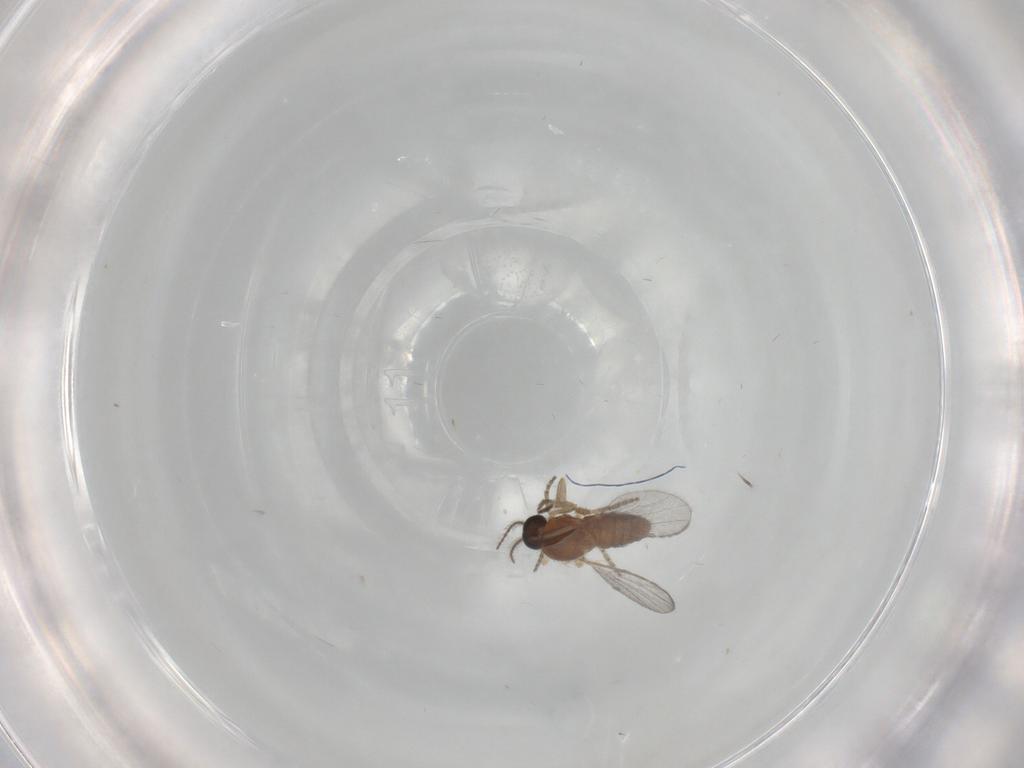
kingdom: Animalia
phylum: Arthropoda
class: Insecta
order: Diptera
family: Ceratopogonidae
